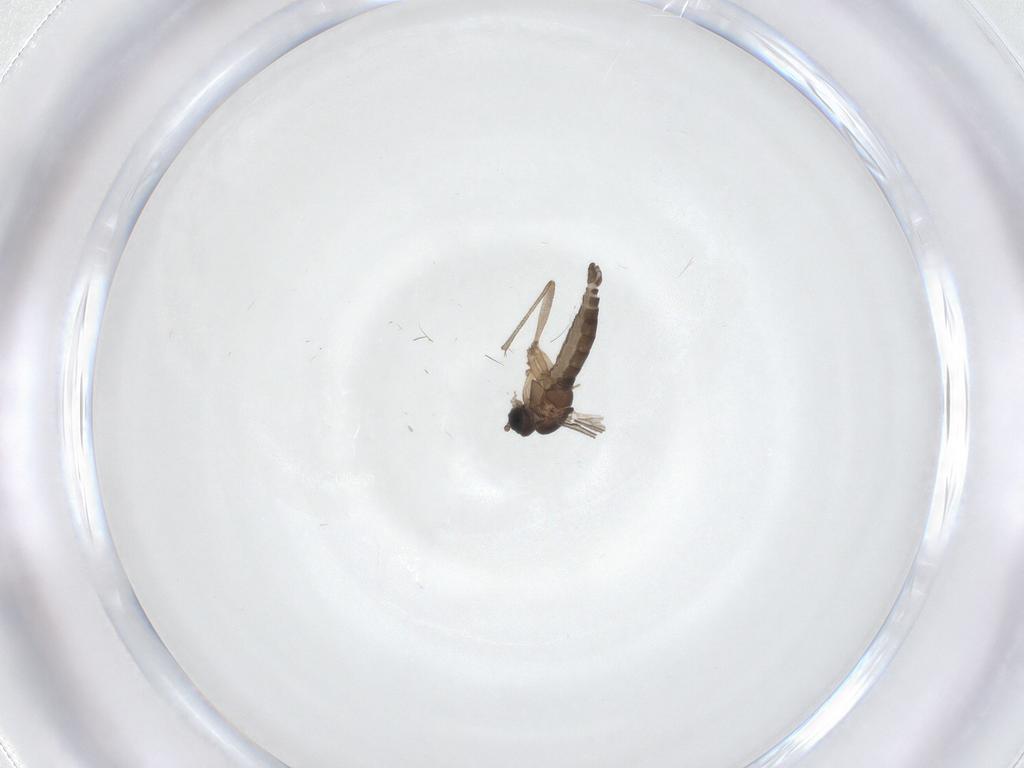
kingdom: Animalia
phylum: Arthropoda
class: Insecta
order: Diptera
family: Sciaridae
